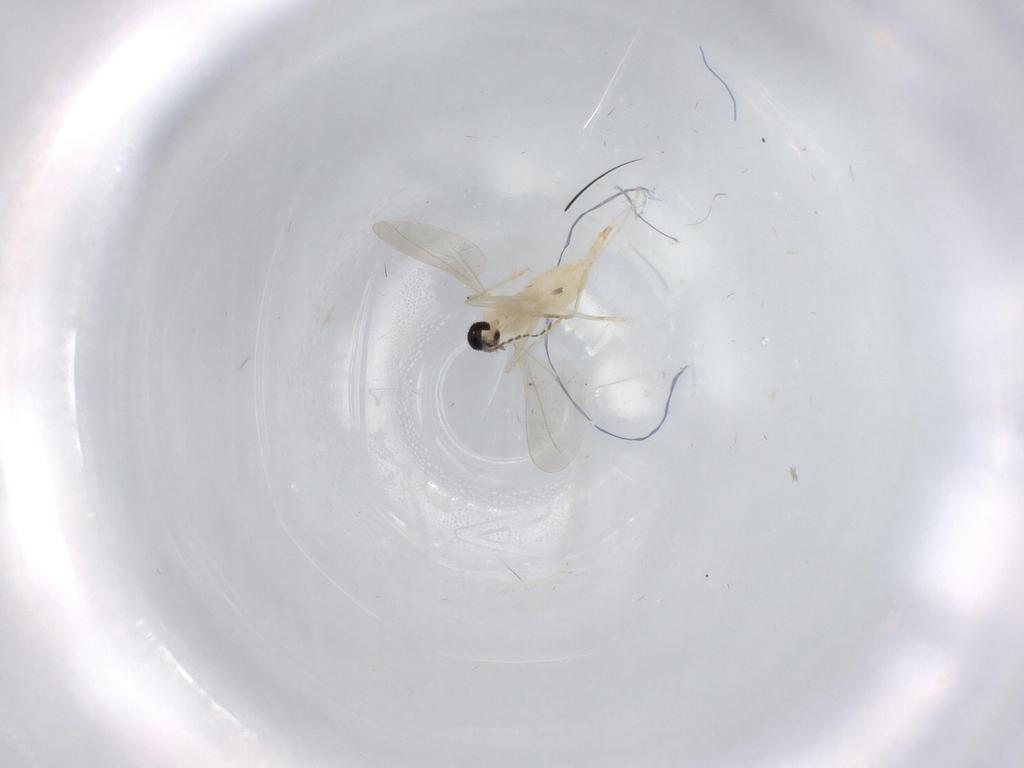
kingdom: Animalia
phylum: Arthropoda
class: Insecta
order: Diptera
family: Cecidomyiidae
